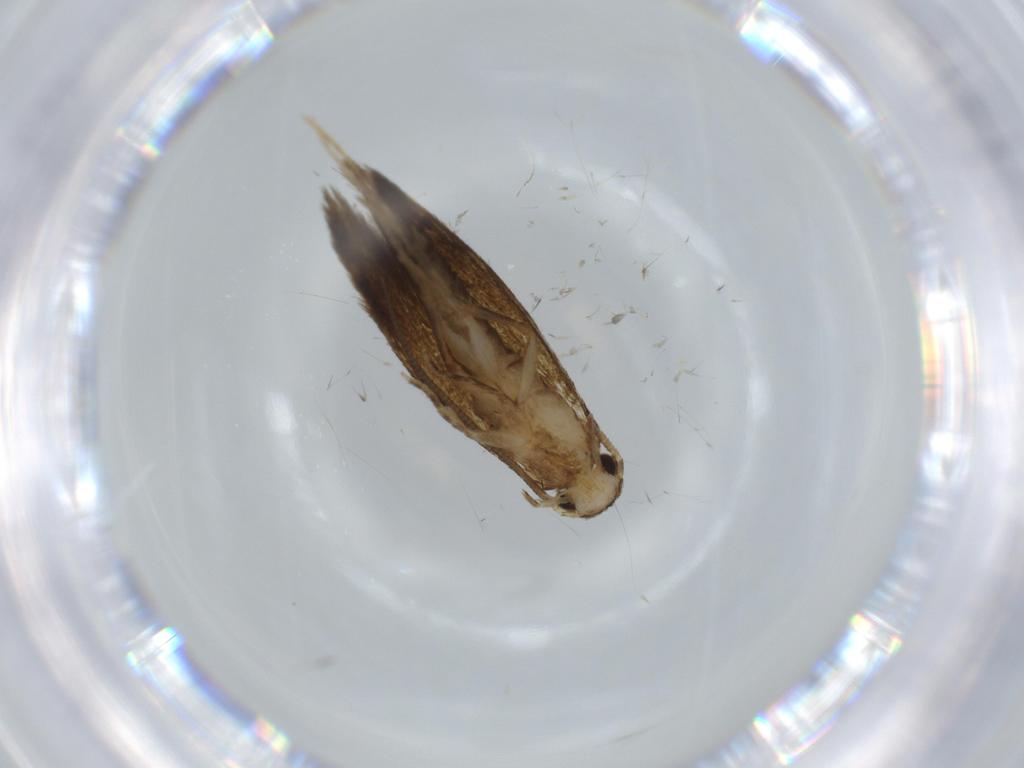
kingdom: Animalia
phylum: Arthropoda
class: Insecta
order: Lepidoptera
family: Tineidae
